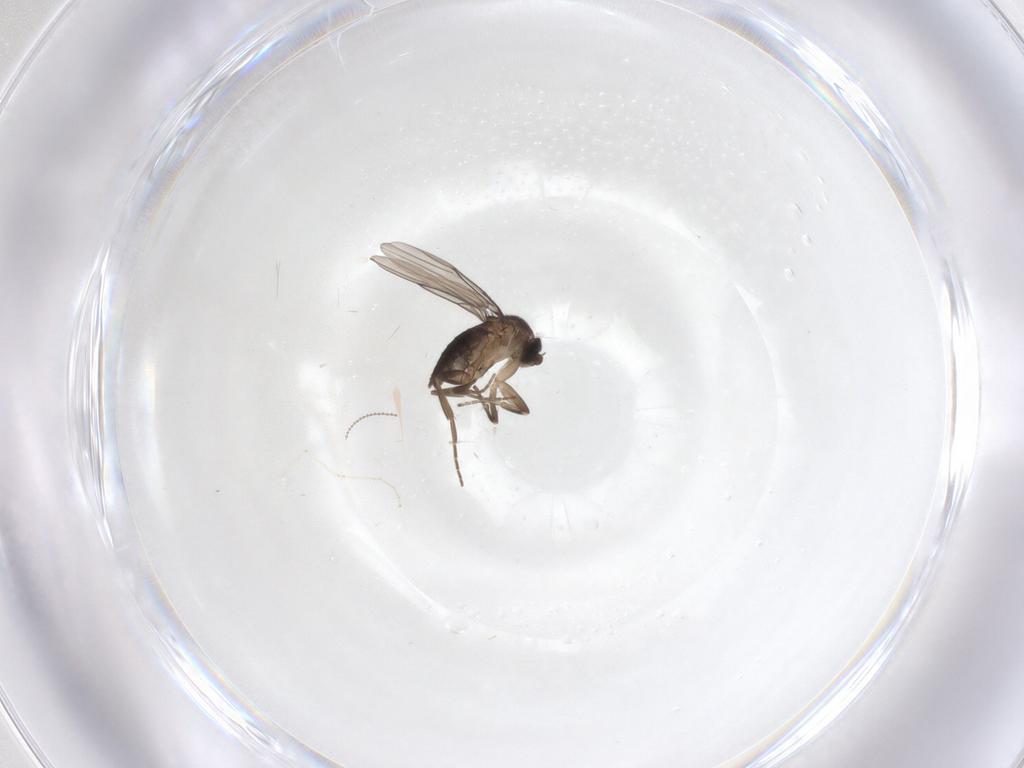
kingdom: Animalia
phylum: Arthropoda
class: Insecta
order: Diptera
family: Phoridae
